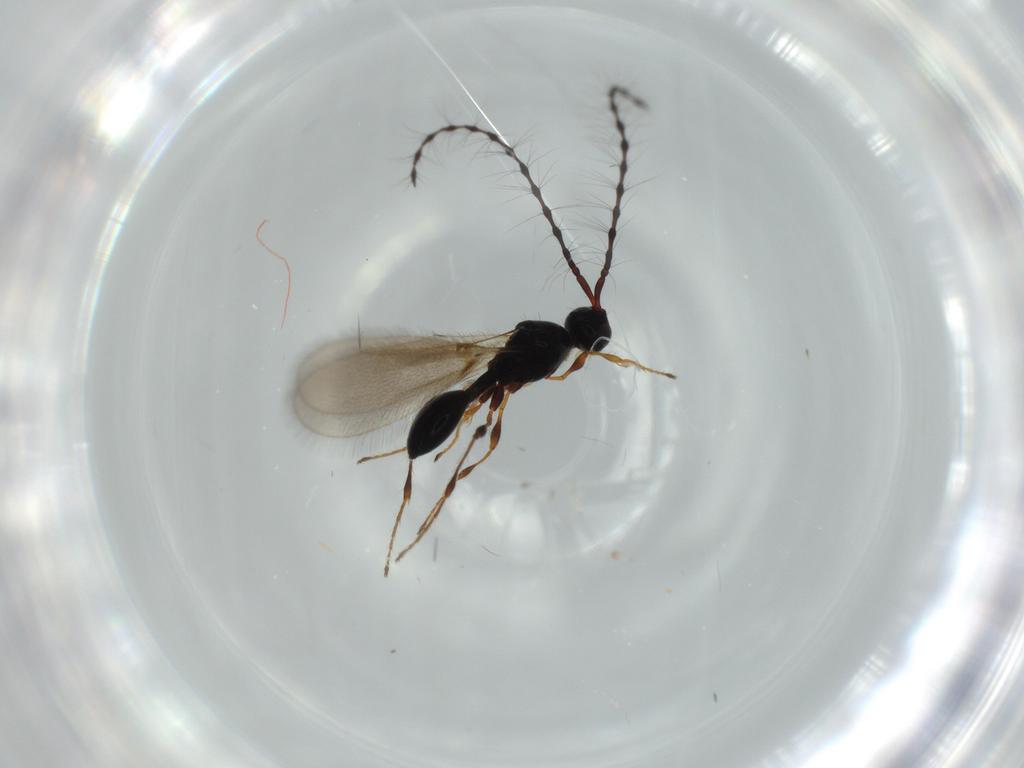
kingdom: Animalia
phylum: Arthropoda
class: Insecta
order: Hymenoptera
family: Diapriidae
